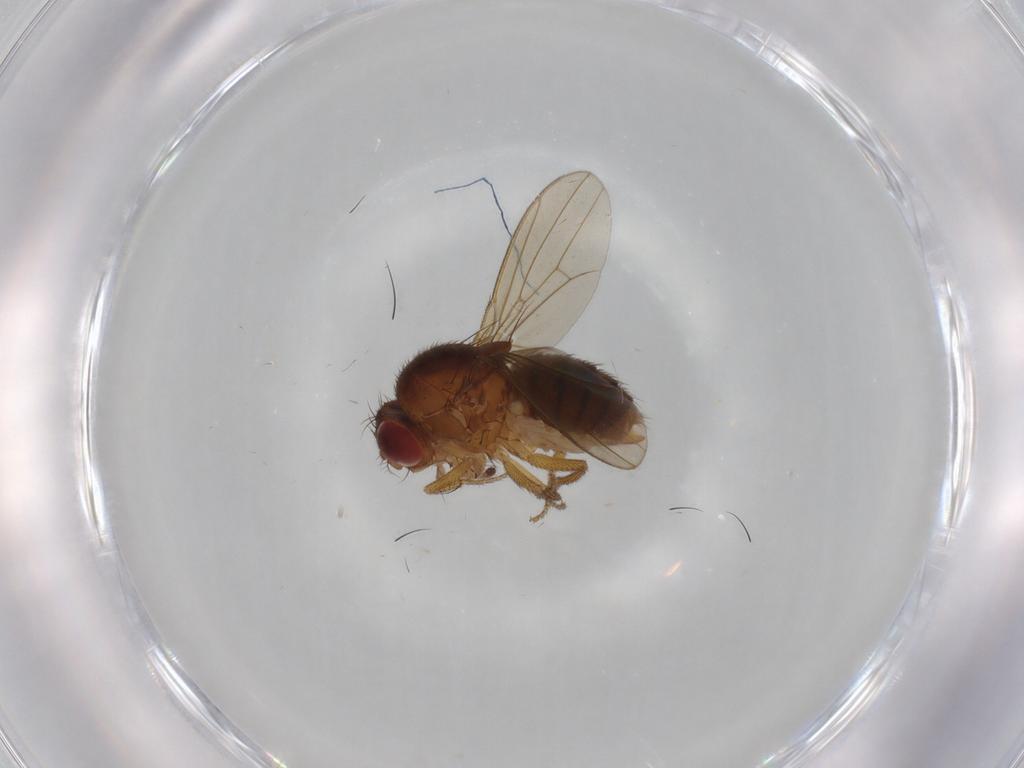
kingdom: Animalia
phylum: Arthropoda
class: Insecta
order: Diptera
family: Drosophilidae
